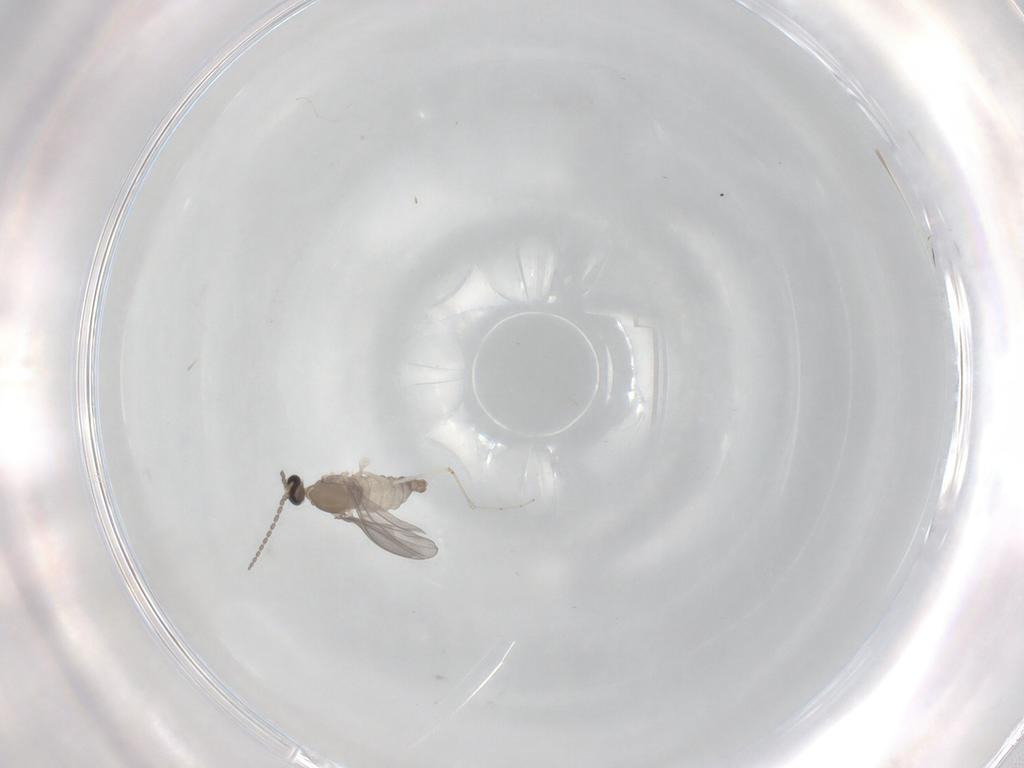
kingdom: Animalia
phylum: Arthropoda
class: Insecta
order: Diptera
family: Cecidomyiidae
